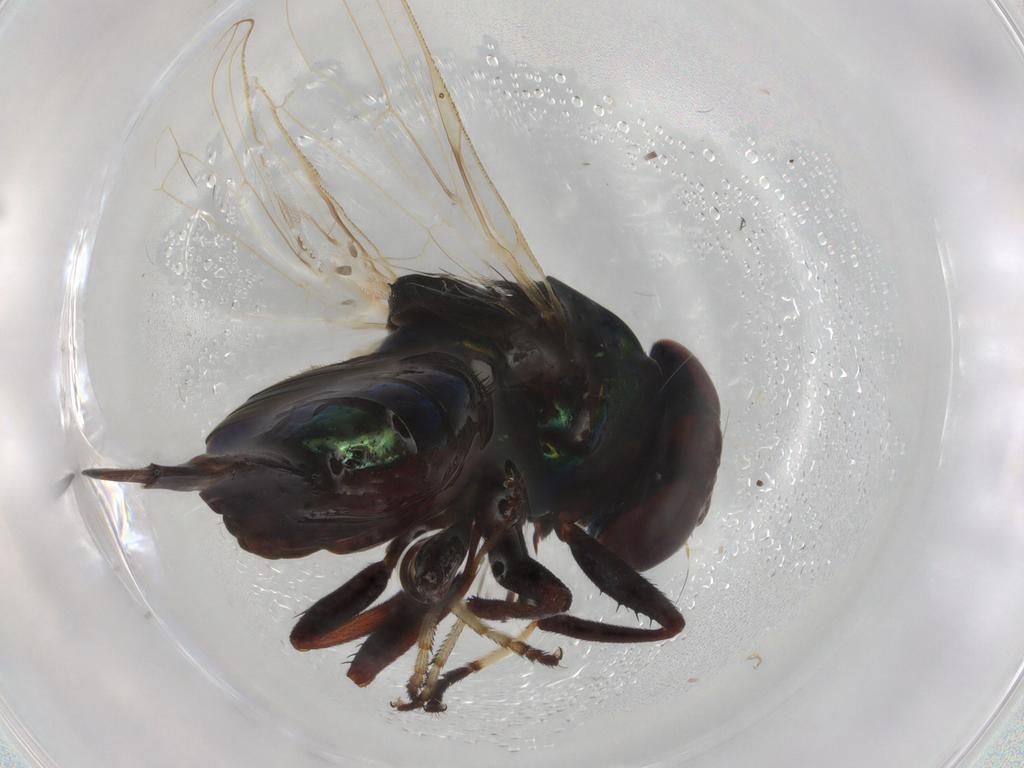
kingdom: Animalia
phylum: Arthropoda
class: Insecta
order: Diptera
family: Ulidiidae
